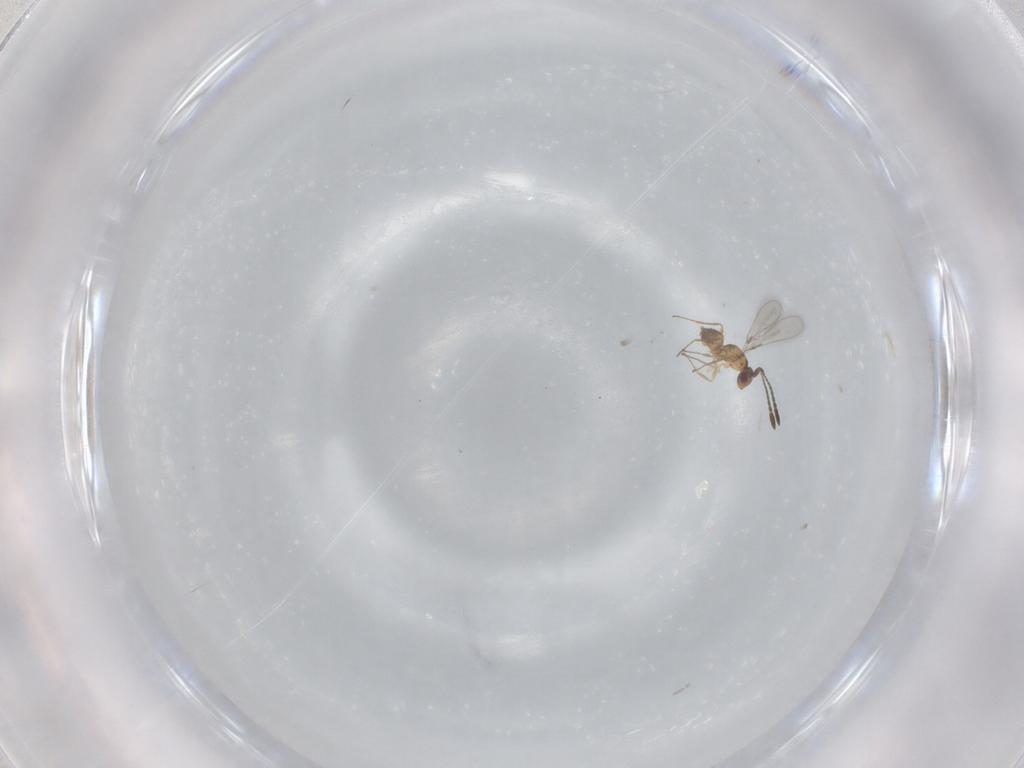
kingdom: Animalia
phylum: Arthropoda
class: Insecta
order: Hymenoptera
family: Mymaridae
